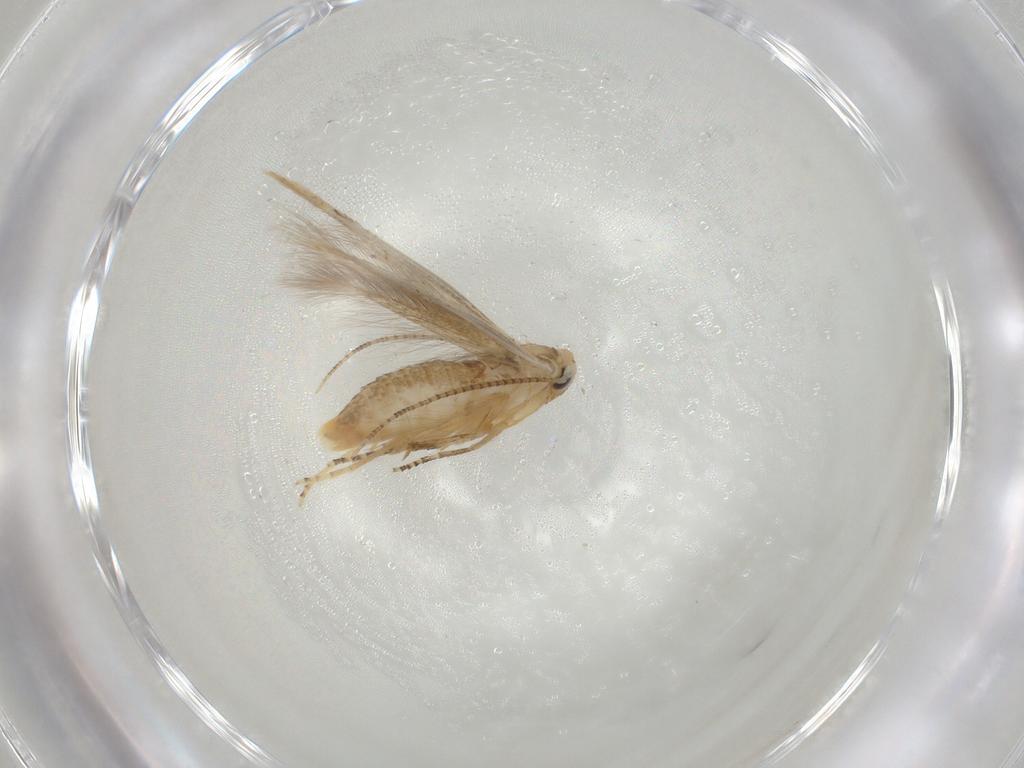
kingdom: Animalia
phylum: Arthropoda
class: Insecta
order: Lepidoptera
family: Bucculatricidae
